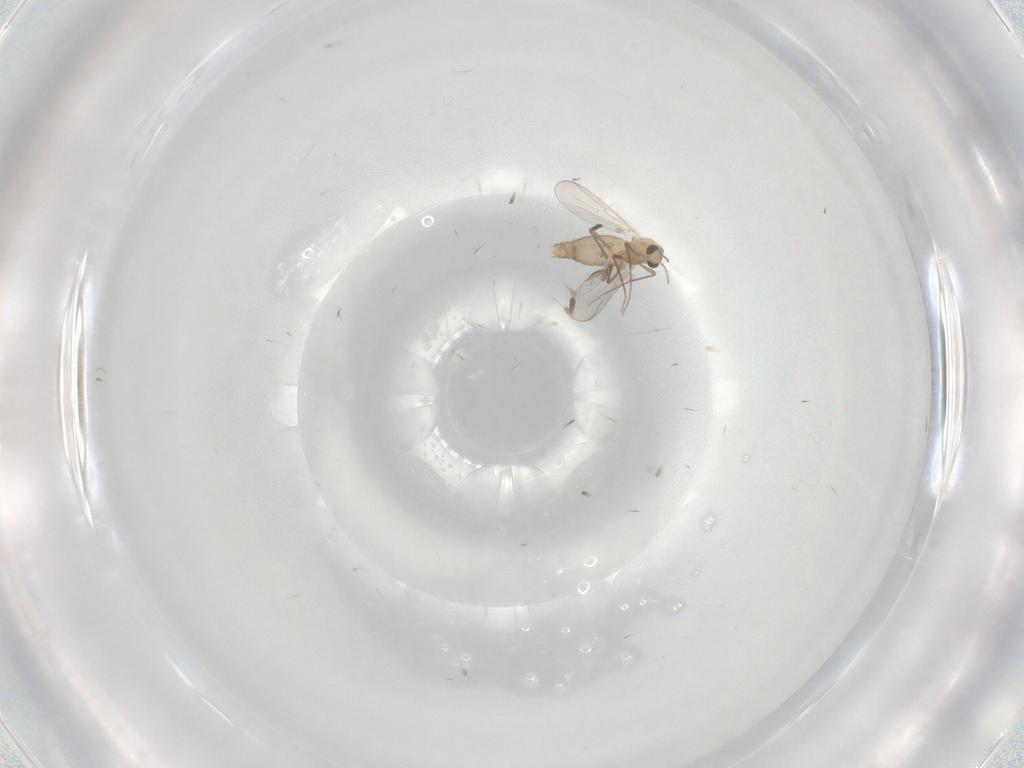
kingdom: Animalia
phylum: Arthropoda
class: Insecta
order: Diptera
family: Chironomidae
